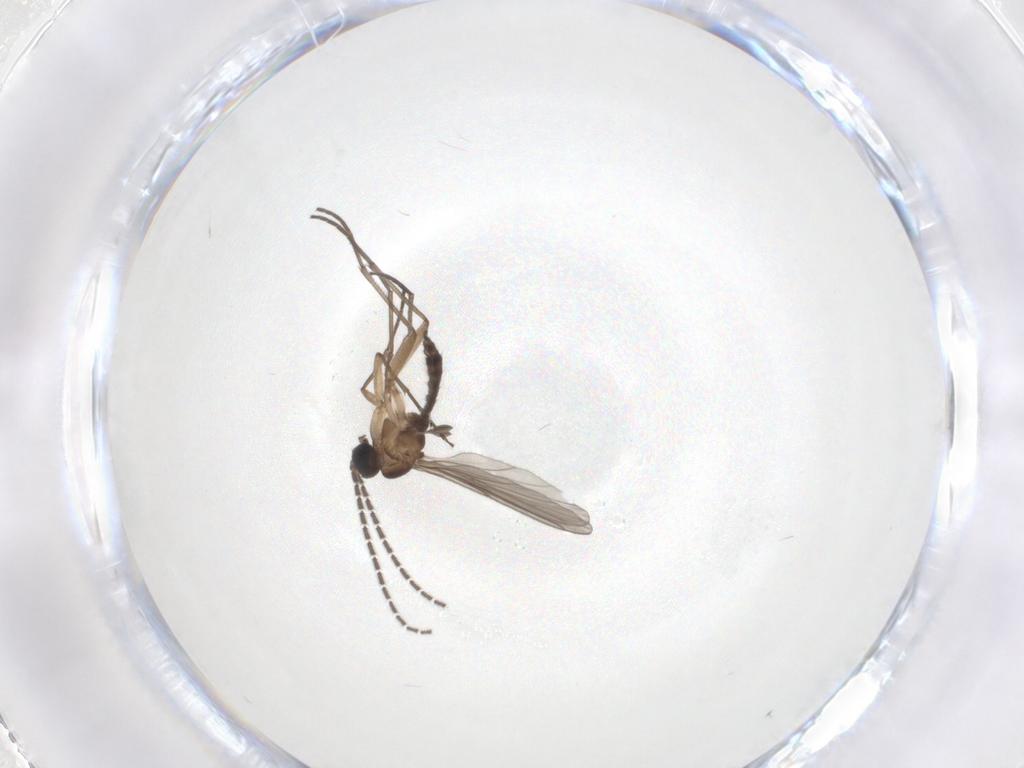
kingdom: Animalia
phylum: Arthropoda
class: Insecta
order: Diptera
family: Sciaridae
